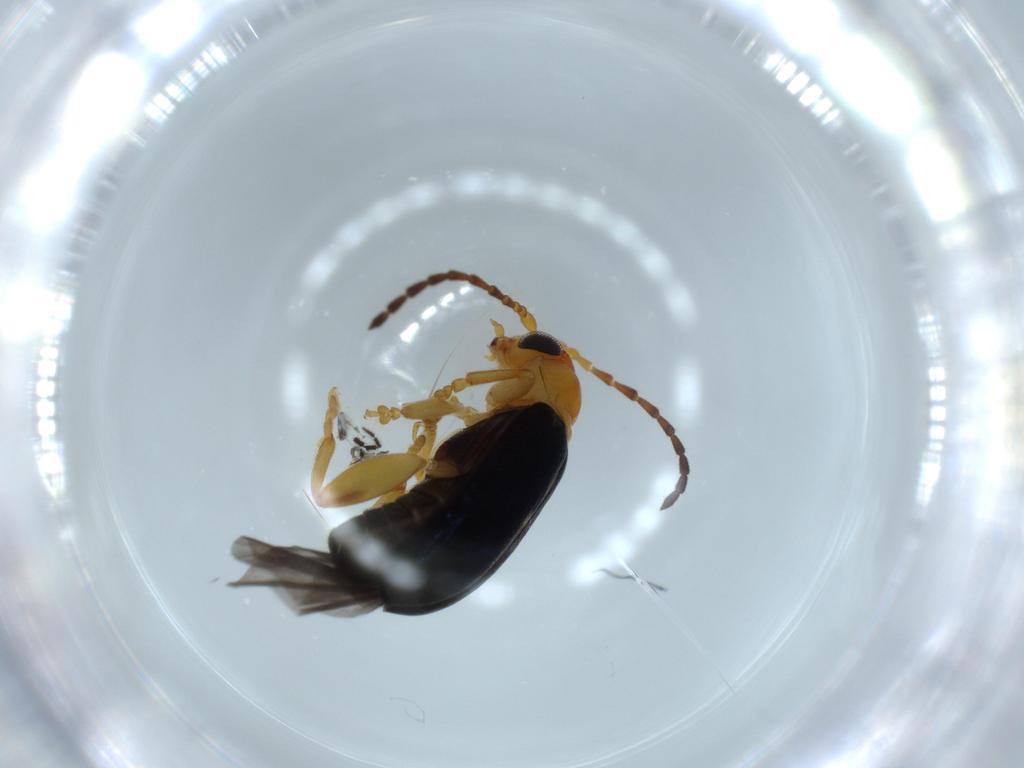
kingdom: Animalia
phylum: Arthropoda
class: Insecta
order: Coleoptera
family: Chrysomelidae
